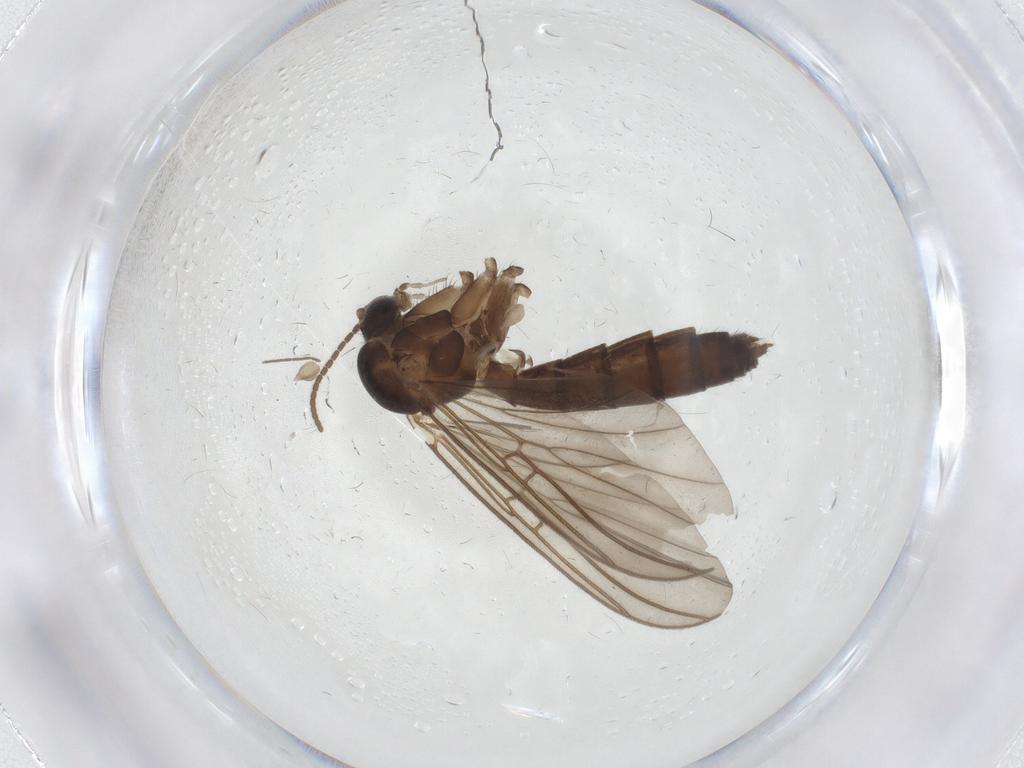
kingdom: Animalia
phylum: Arthropoda
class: Insecta
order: Diptera
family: Mycetophilidae
